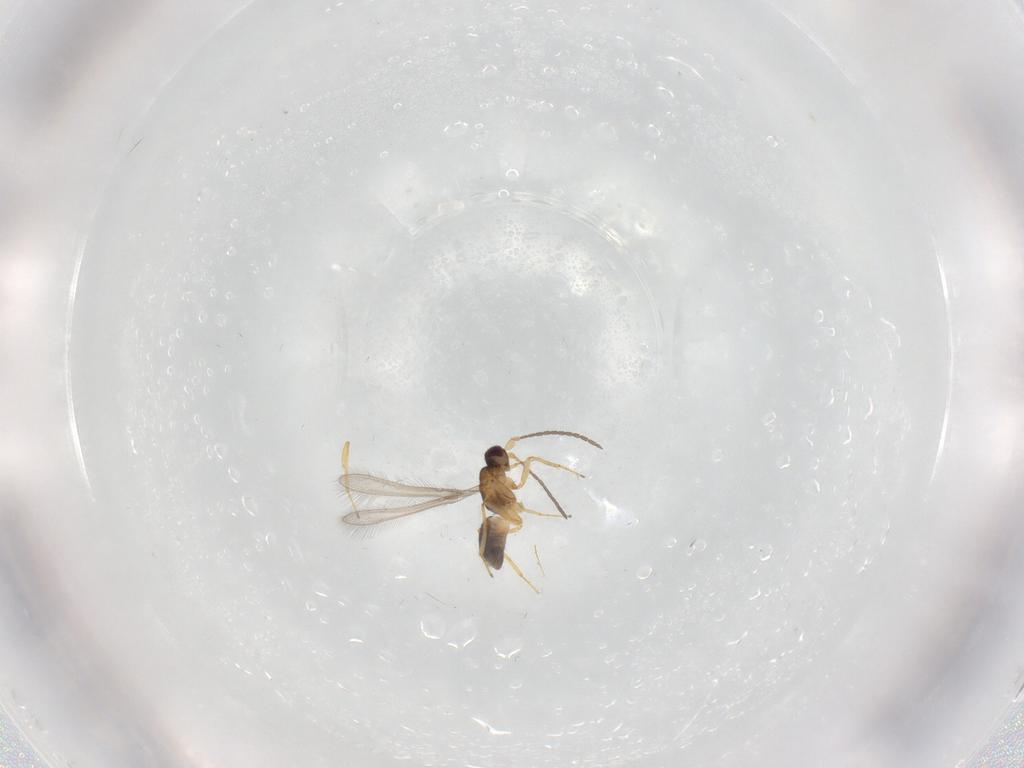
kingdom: Animalia
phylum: Arthropoda
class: Insecta
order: Hymenoptera
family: Mymaridae
